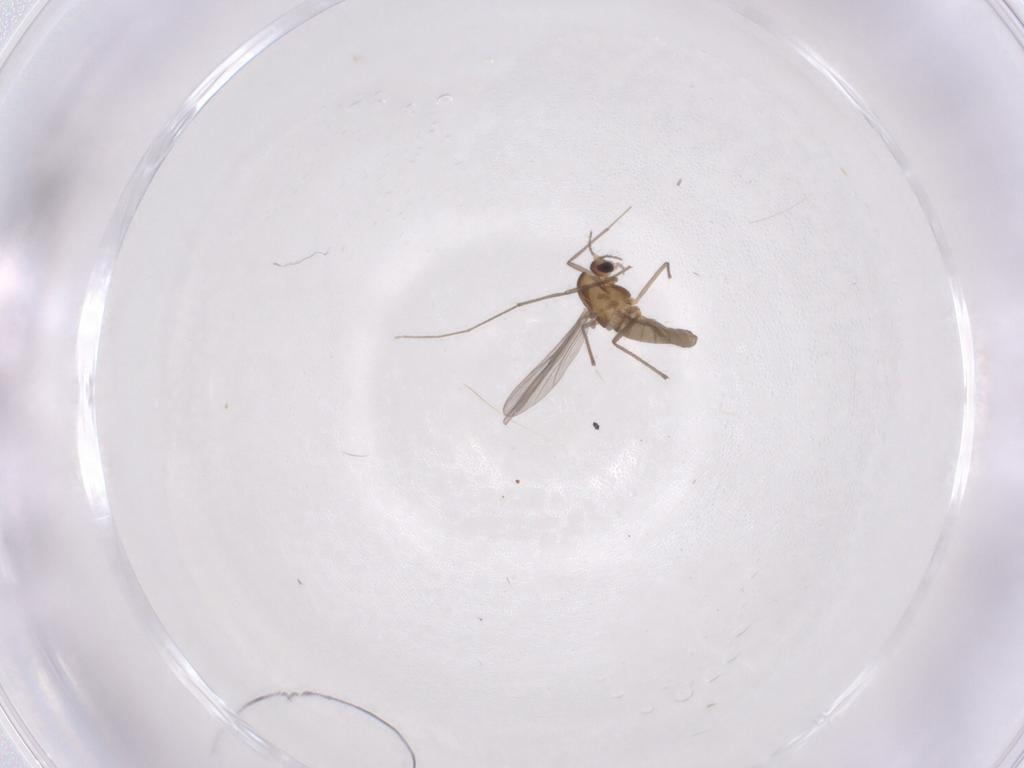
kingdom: Animalia
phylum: Arthropoda
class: Insecta
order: Diptera
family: Cecidomyiidae
